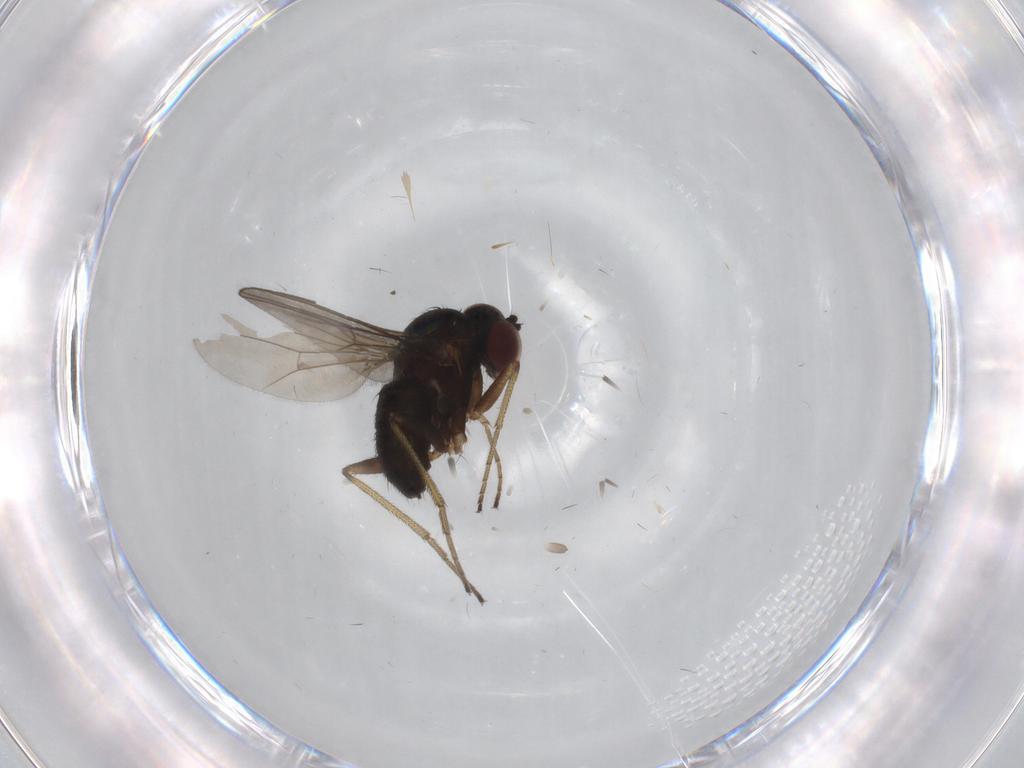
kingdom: Animalia
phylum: Arthropoda
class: Insecta
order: Diptera
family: Dolichopodidae
